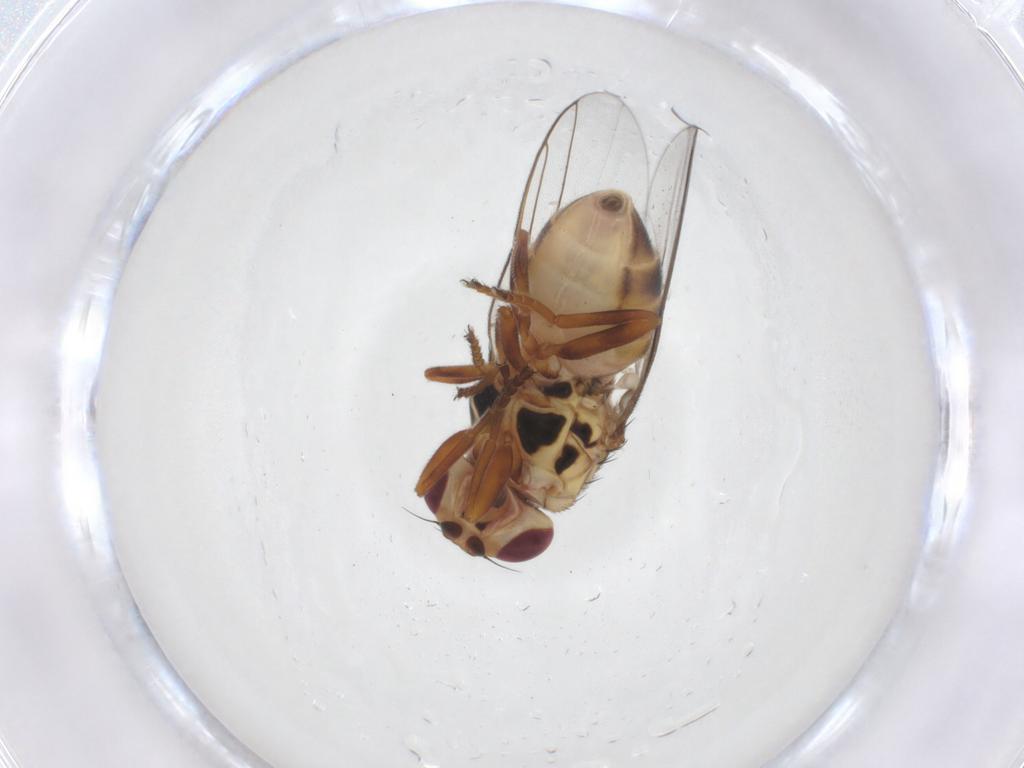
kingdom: Animalia
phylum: Arthropoda
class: Insecta
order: Diptera
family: Chloropidae
